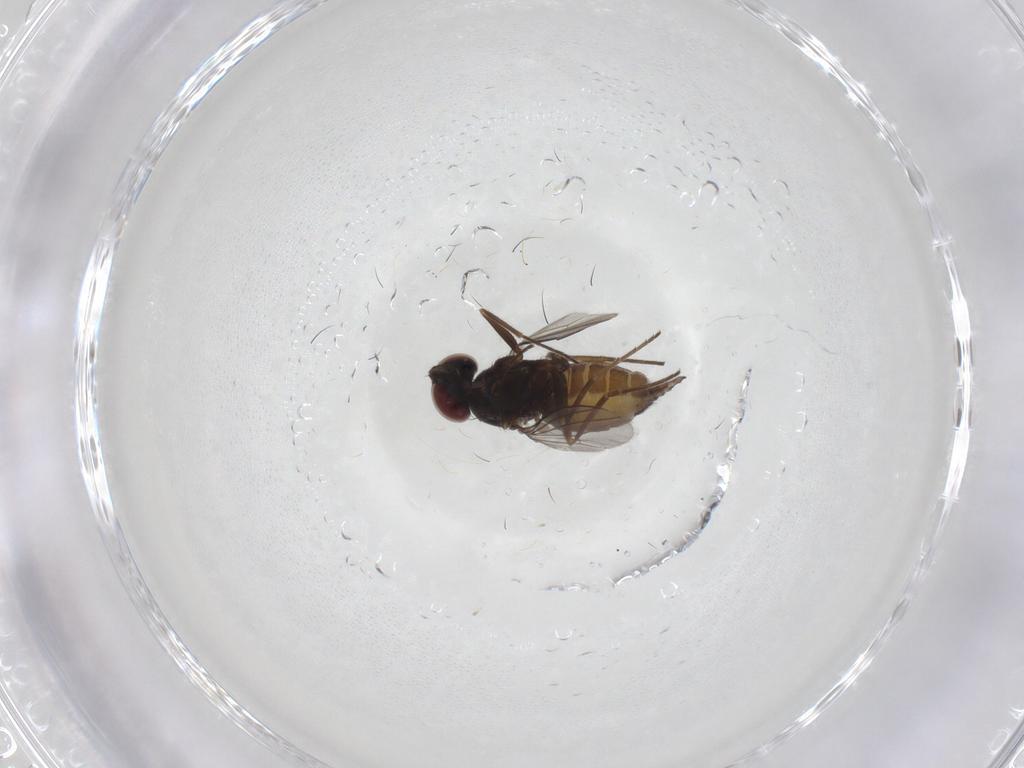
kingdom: Animalia
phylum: Arthropoda
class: Insecta
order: Diptera
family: Dolichopodidae
